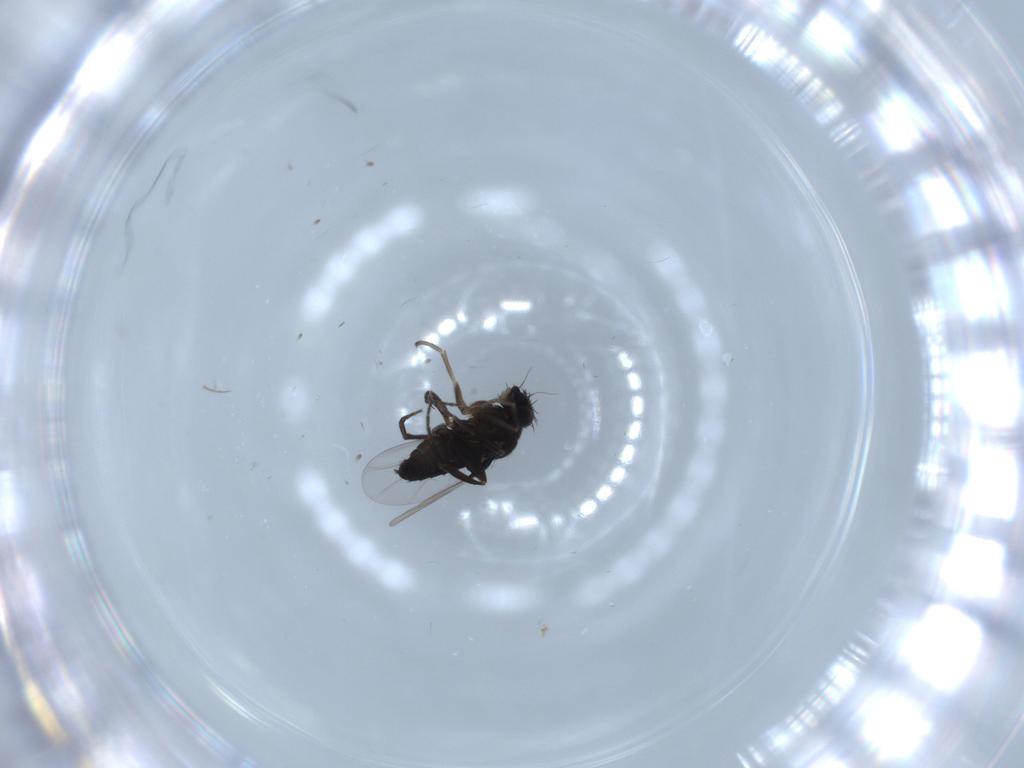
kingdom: Animalia
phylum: Arthropoda
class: Insecta
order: Diptera
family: Phoridae
